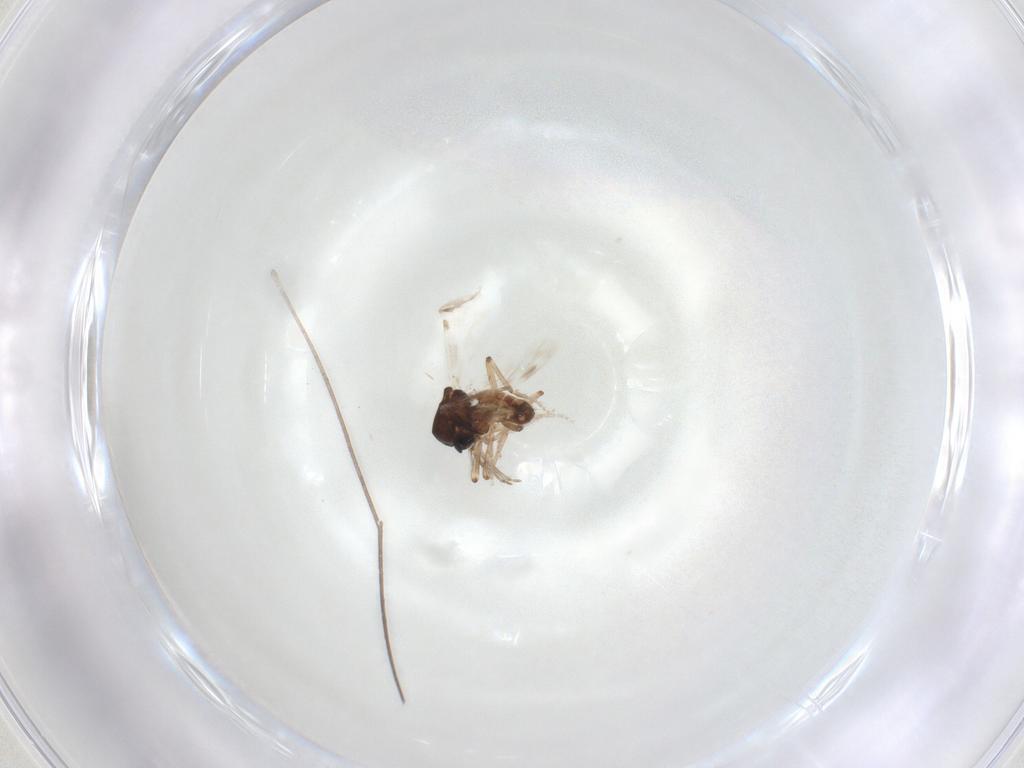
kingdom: Animalia
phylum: Arthropoda
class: Insecta
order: Diptera
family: Ceratopogonidae
